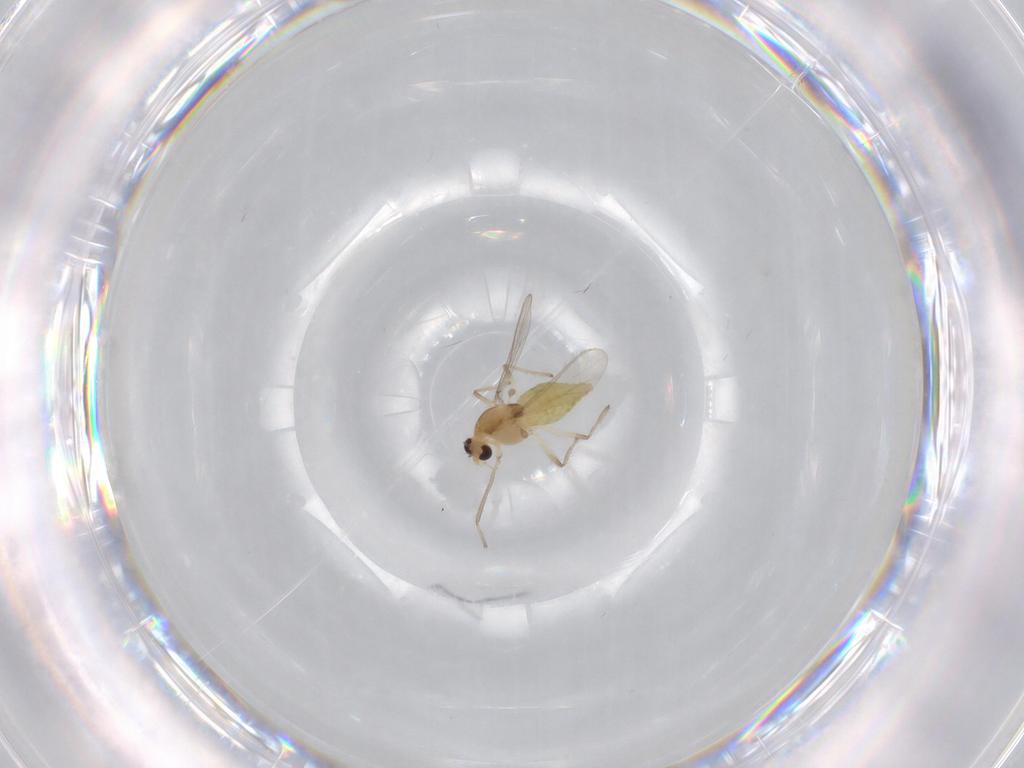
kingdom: Animalia
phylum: Arthropoda
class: Insecta
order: Diptera
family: Chironomidae
